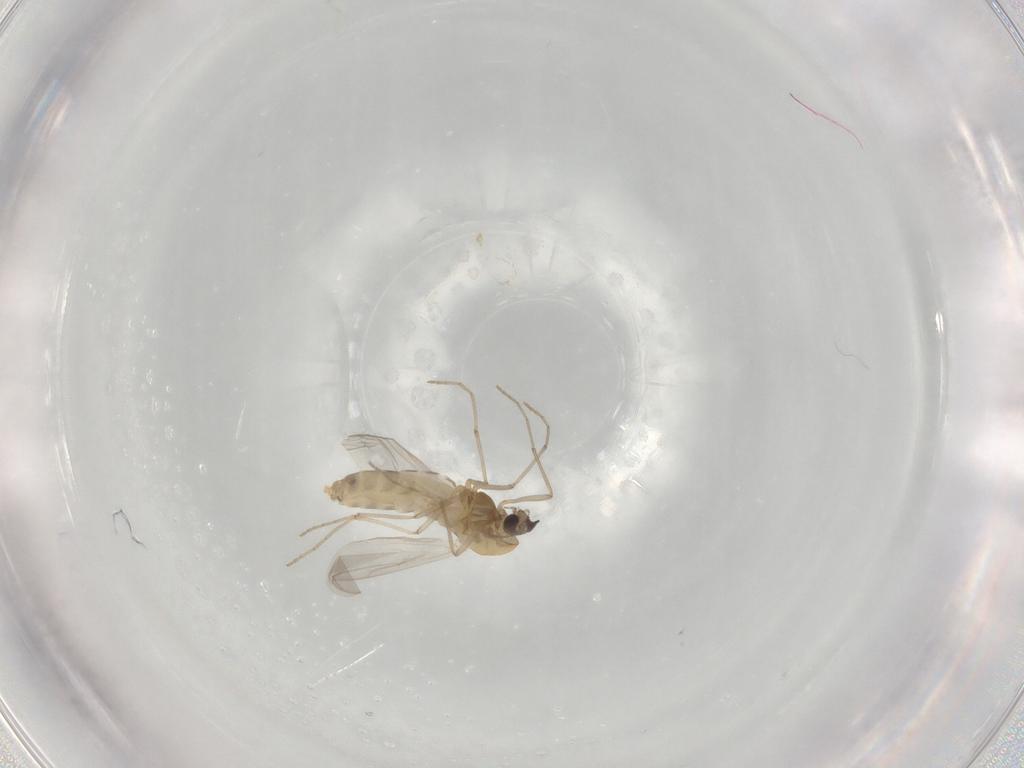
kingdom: Animalia
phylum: Arthropoda
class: Insecta
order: Diptera
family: Chironomidae
